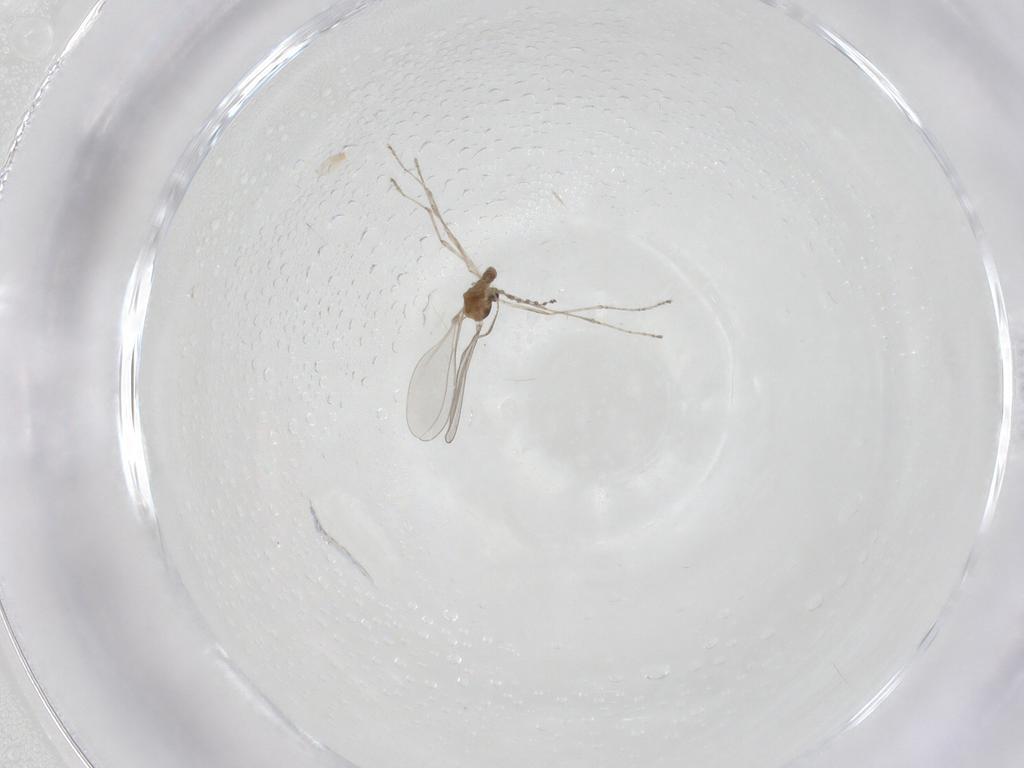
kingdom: Animalia
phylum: Arthropoda
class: Insecta
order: Diptera
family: Cecidomyiidae
